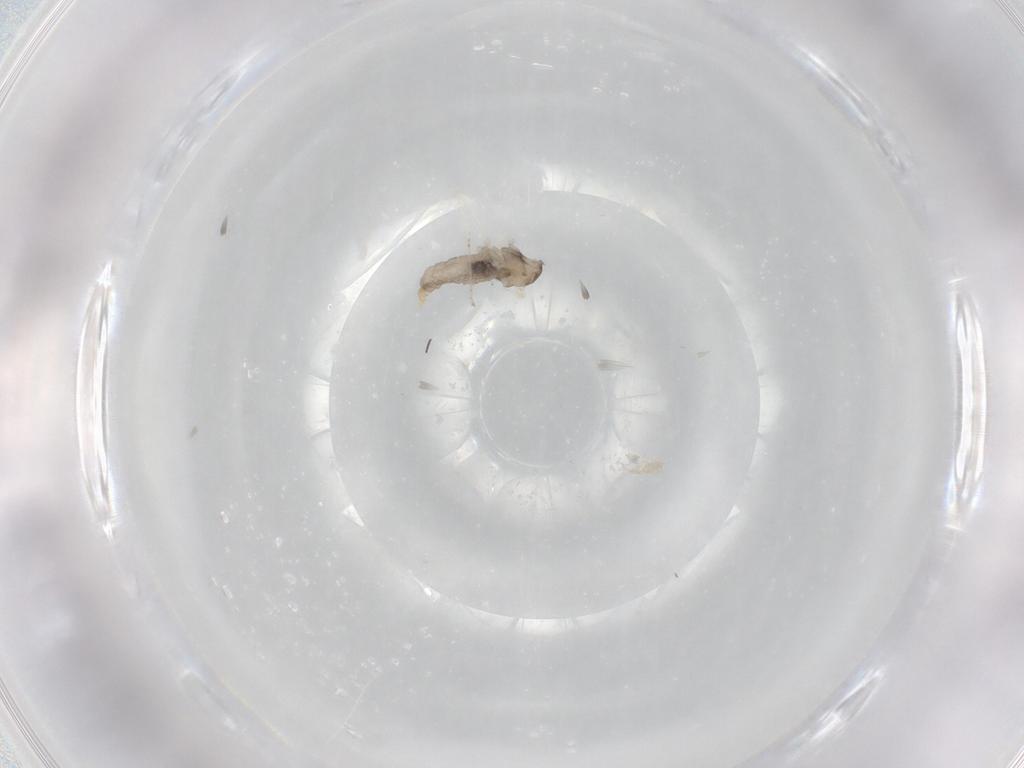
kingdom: Animalia
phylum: Arthropoda
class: Insecta
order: Diptera
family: Cecidomyiidae
